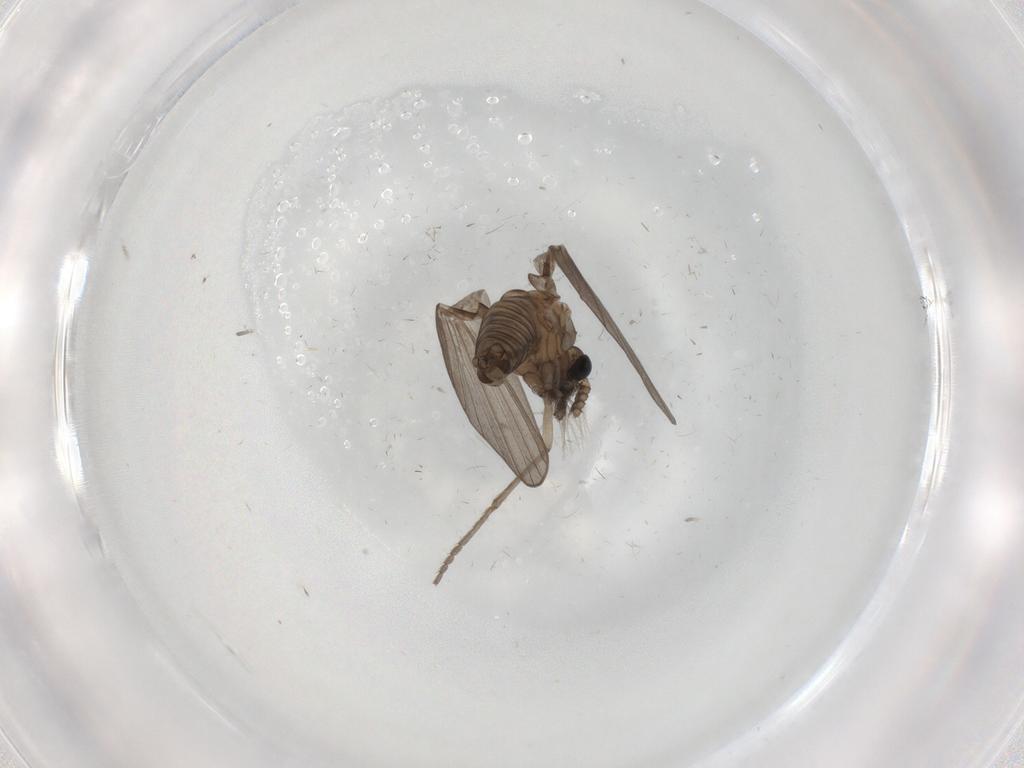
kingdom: Animalia
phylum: Arthropoda
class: Insecta
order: Diptera
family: Psychodidae
